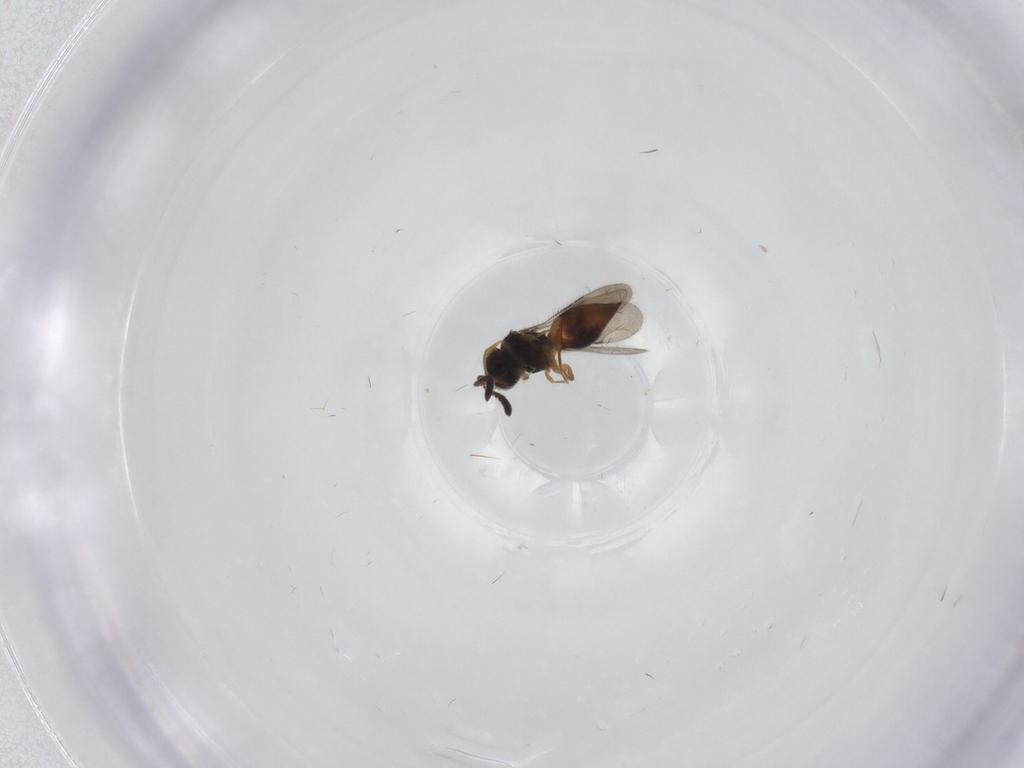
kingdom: Animalia
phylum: Arthropoda
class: Insecta
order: Hymenoptera
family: Ceraphronidae
